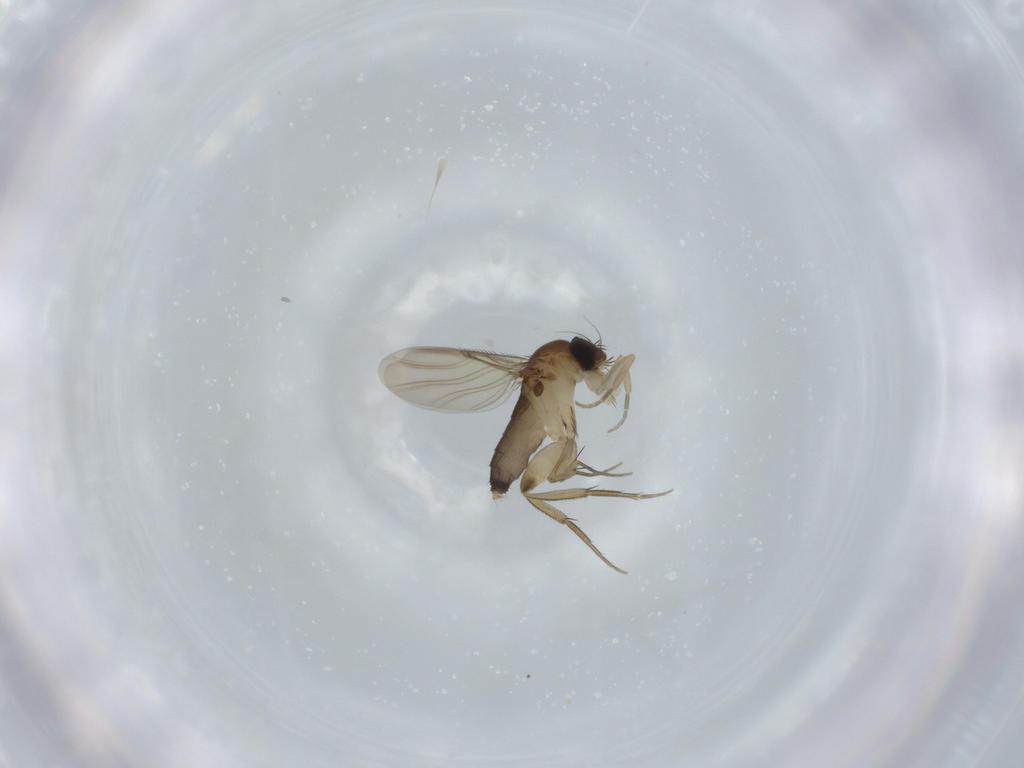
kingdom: Animalia
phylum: Arthropoda
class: Insecta
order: Diptera
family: Phoridae
